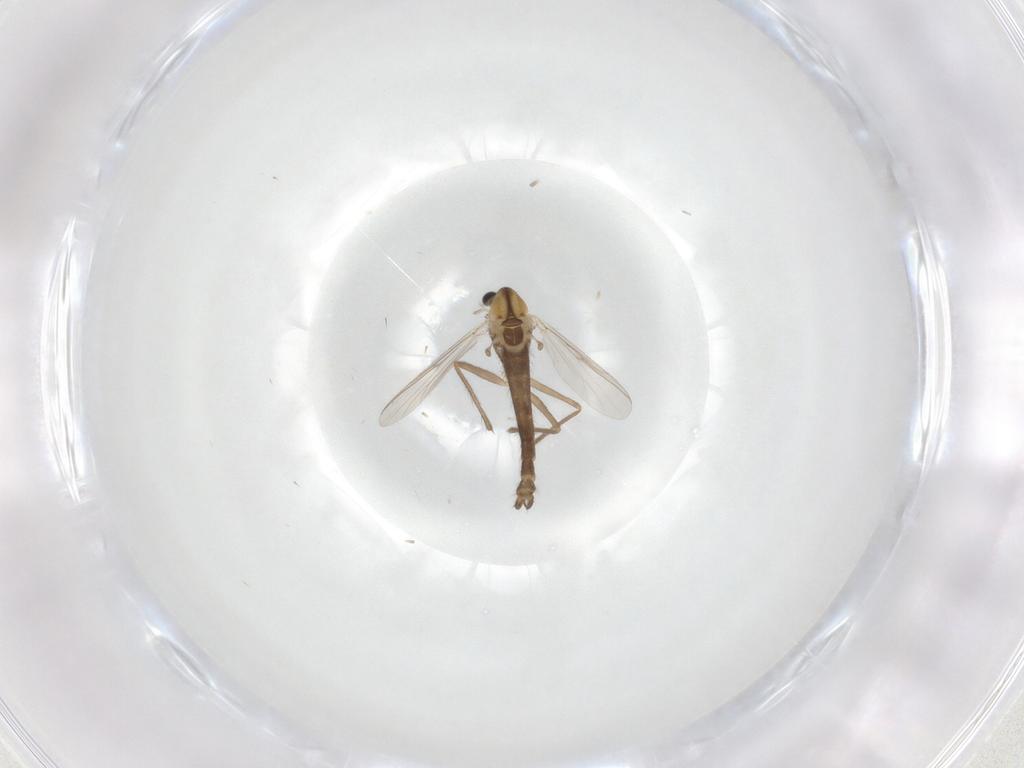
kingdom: Animalia
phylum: Arthropoda
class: Insecta
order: Diptera
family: Chironomidae
